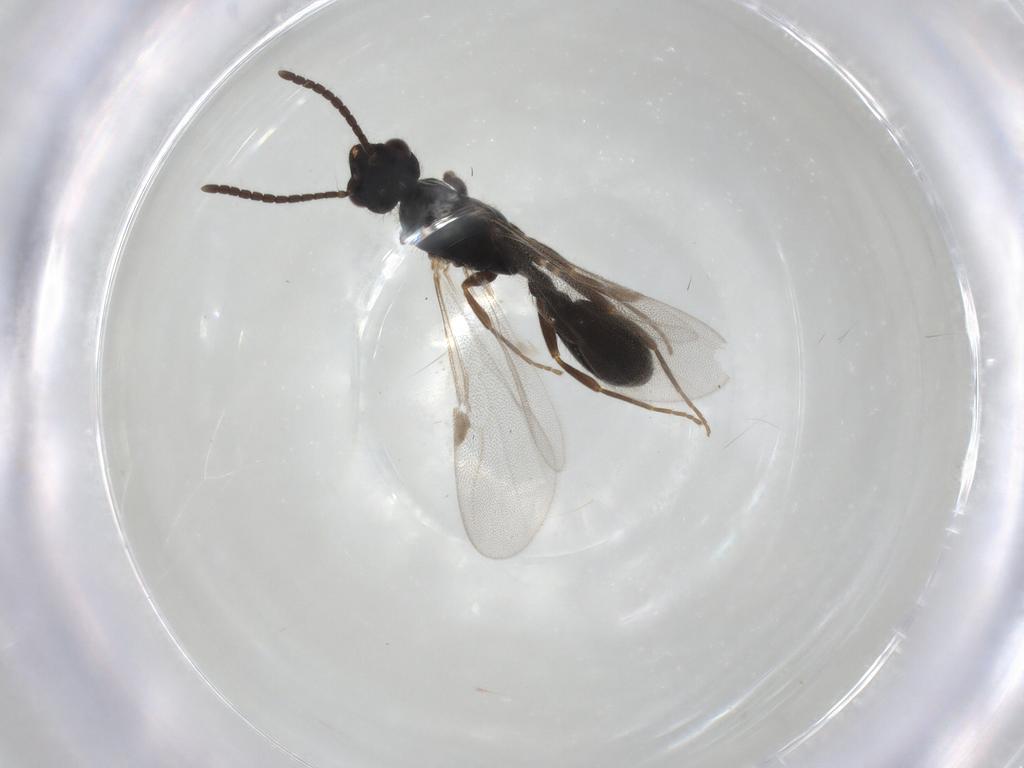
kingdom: Animalia
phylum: Arthropoda
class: Insecta
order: Hymenoptera
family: Formicidae
